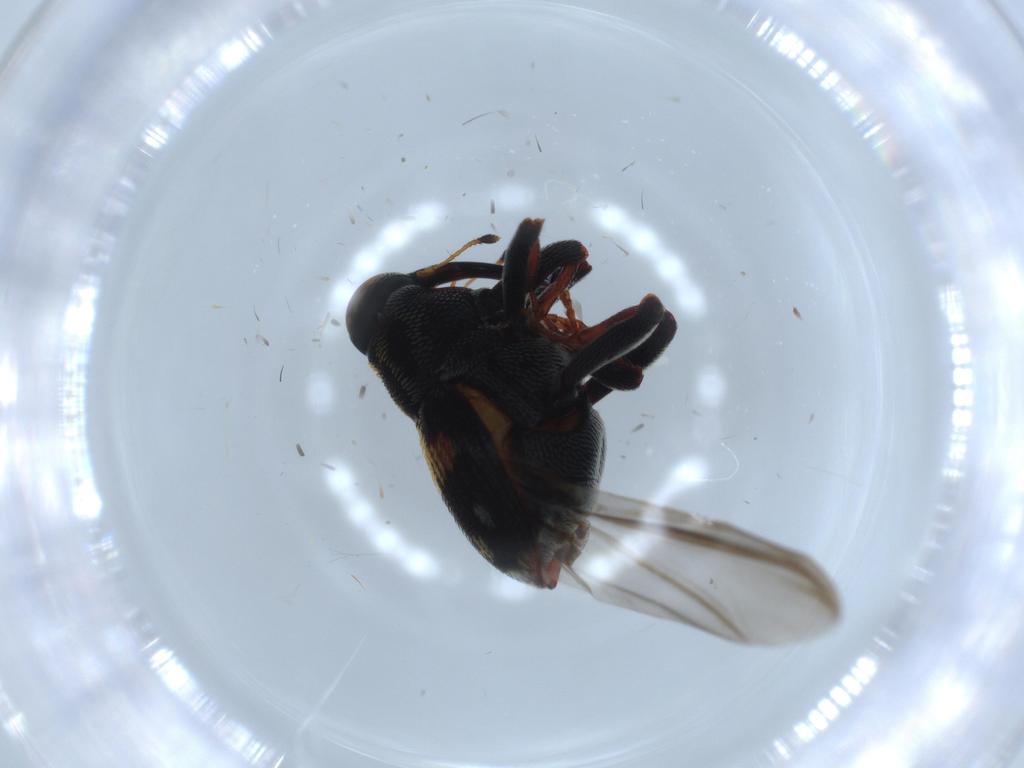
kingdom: Animalia
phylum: Arthropoda
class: Insecta
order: Coleoptera
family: Curculionidae
